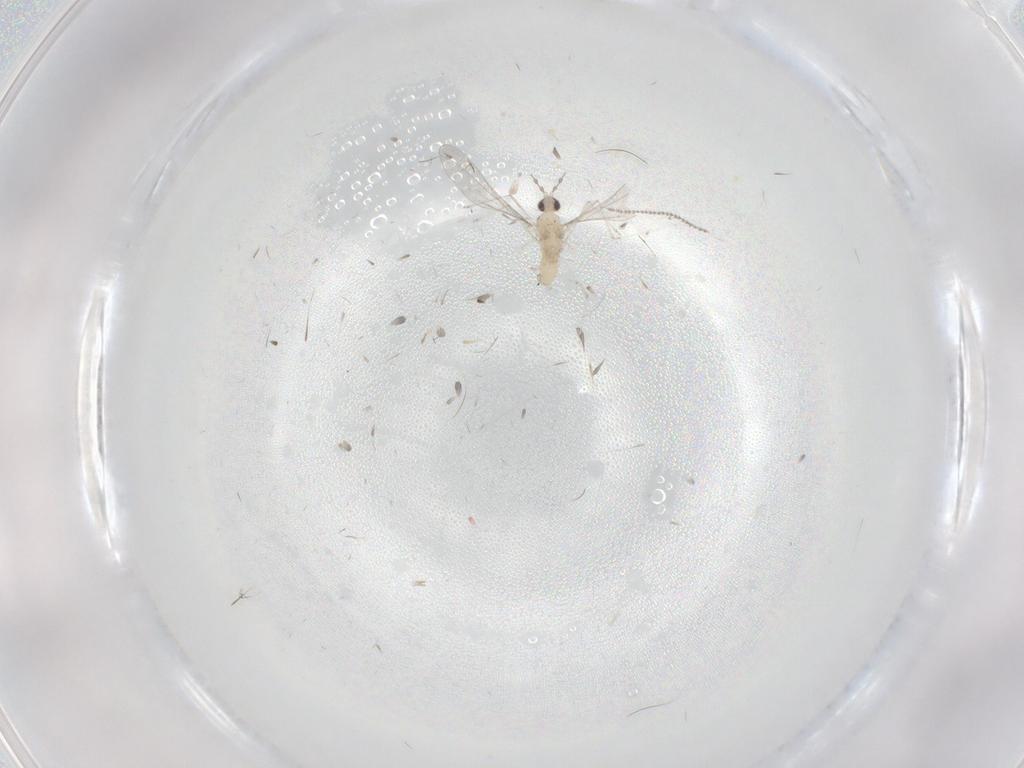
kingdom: Animalia
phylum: Arthropoda
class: Insecta
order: Diptera
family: Cecidomyiidae
